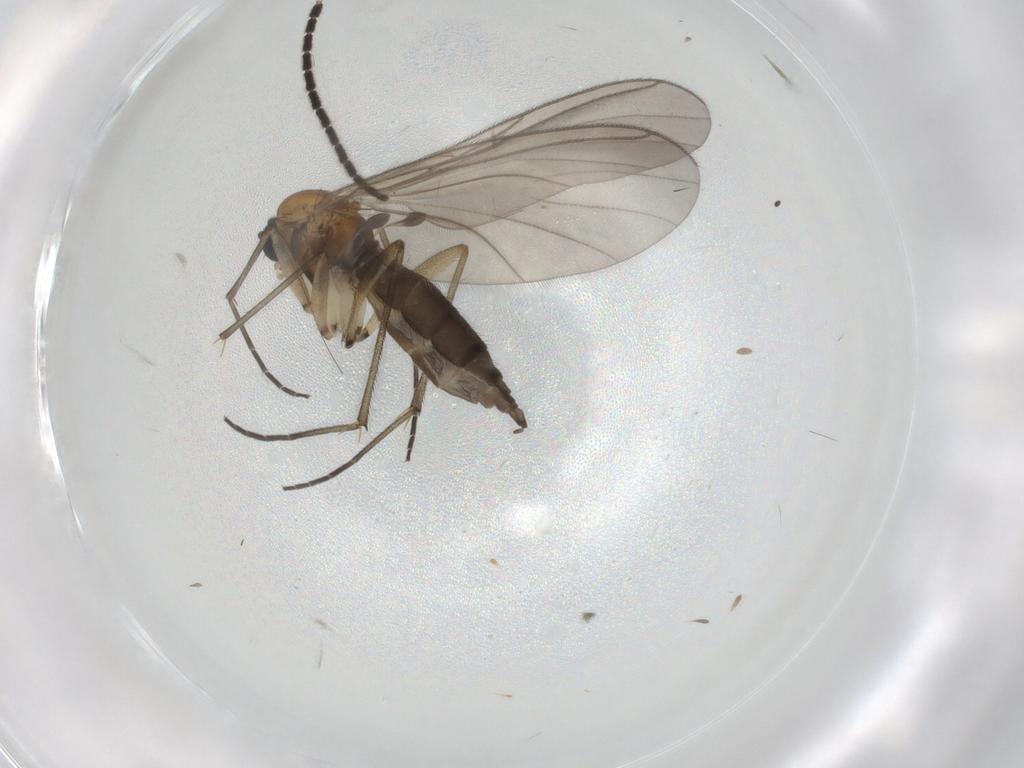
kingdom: Animalia
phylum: Arthropoda
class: Insecta
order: Diptera
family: Sciaridae
